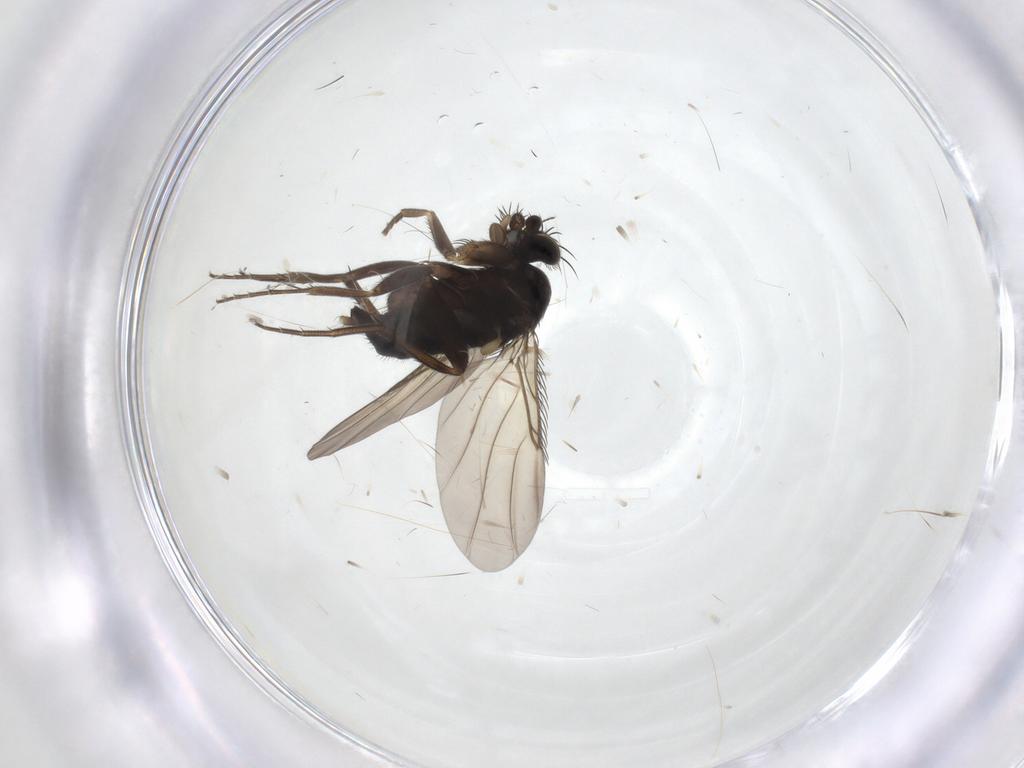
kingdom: Animalia
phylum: Arthropoda
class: Insecta
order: Diptera
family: Phoridae
